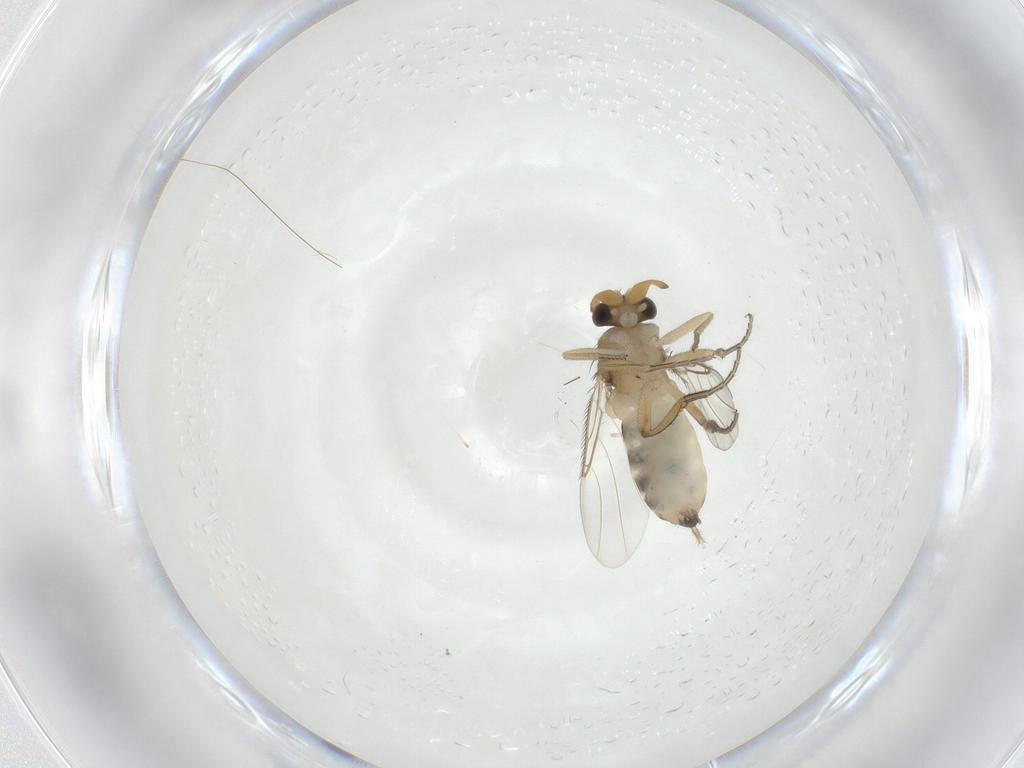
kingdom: Animalia
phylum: Arthropoda
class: Insecta
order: Diptera
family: Phoridae
